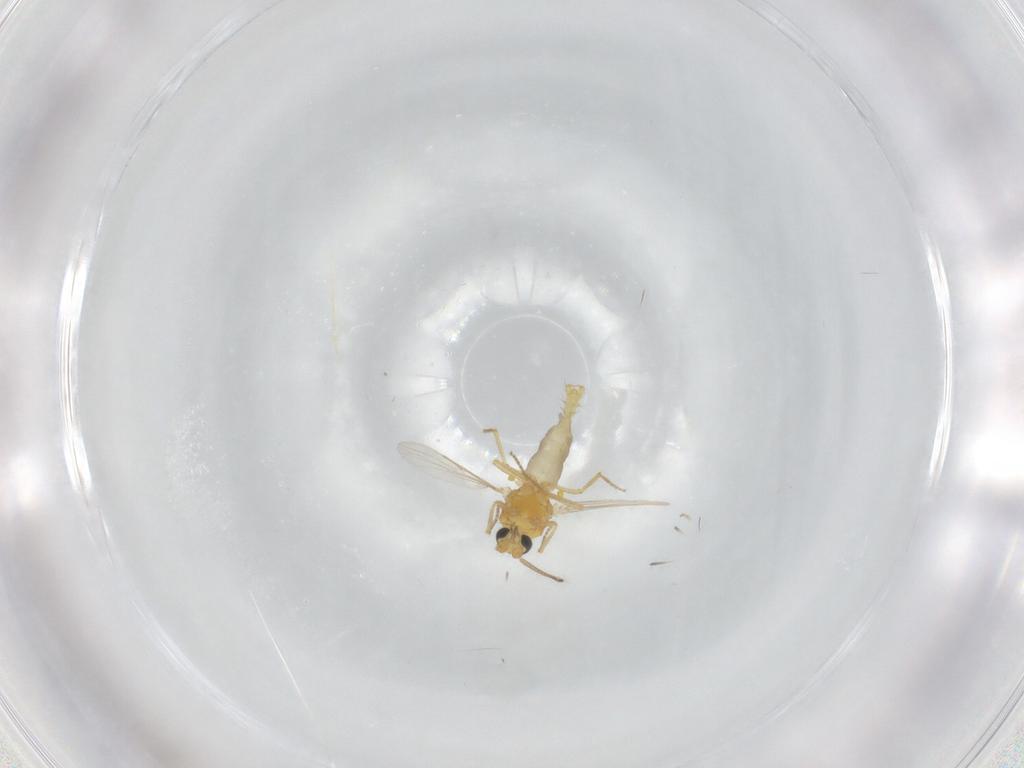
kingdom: Animalia
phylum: Arthropoda
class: Insecta
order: Diptera
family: Ceratopogonidae
